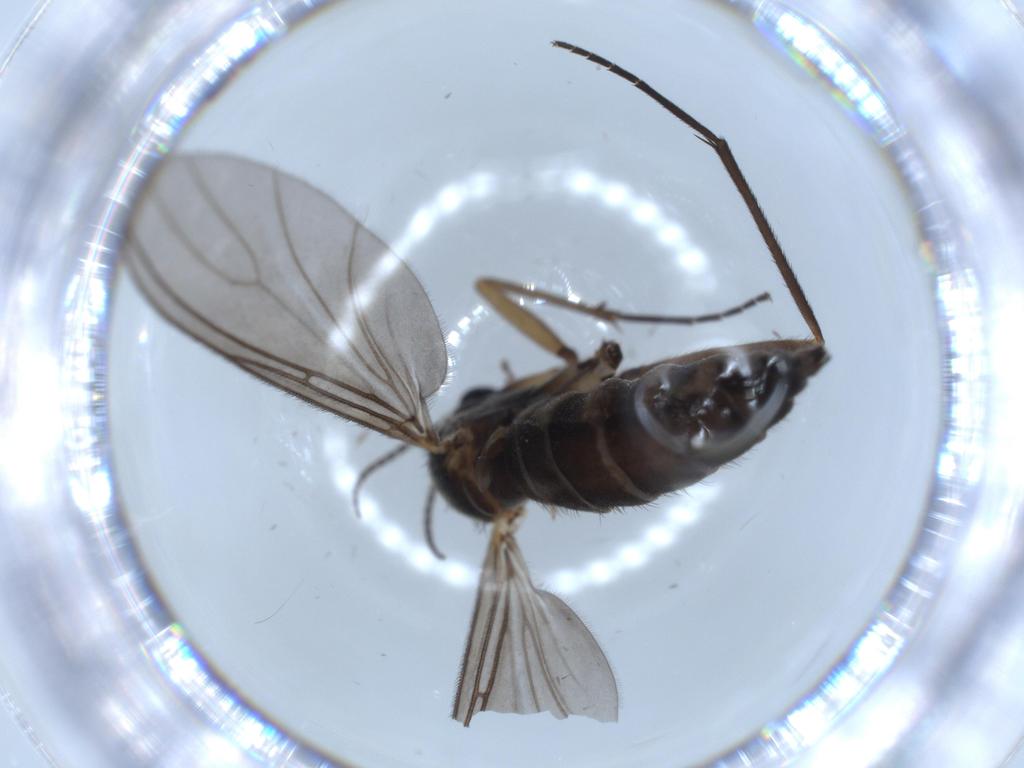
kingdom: Animalia
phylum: Arthropoda
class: Insecta
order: Diptera
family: Sciaridae
